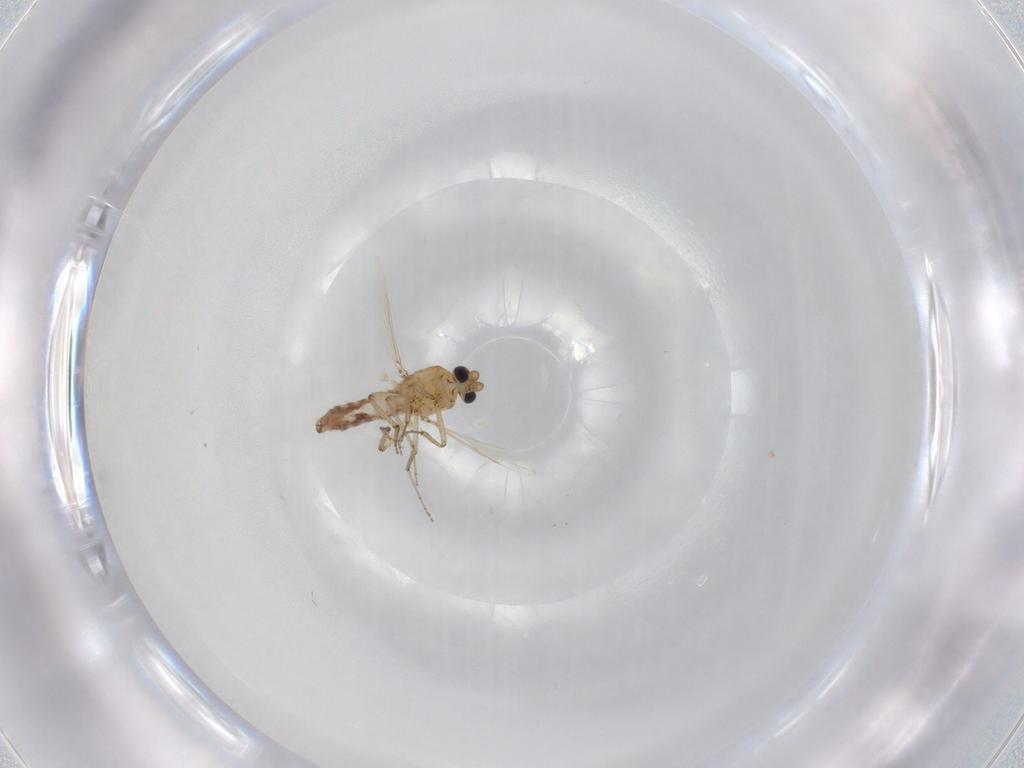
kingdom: Animalia
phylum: Arthropoda
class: Insecta
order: Diptera
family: Ceratopogonidae
